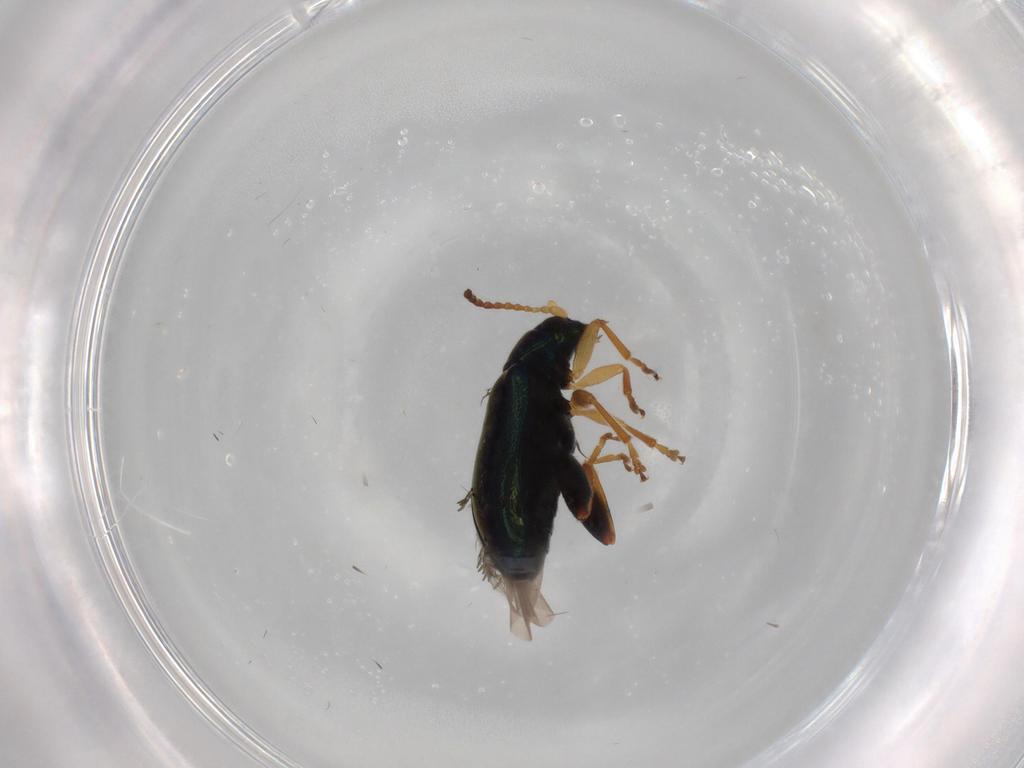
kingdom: Animalia
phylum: Arthropoda
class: Insecta
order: Coleoptera
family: Chrysomelidae
